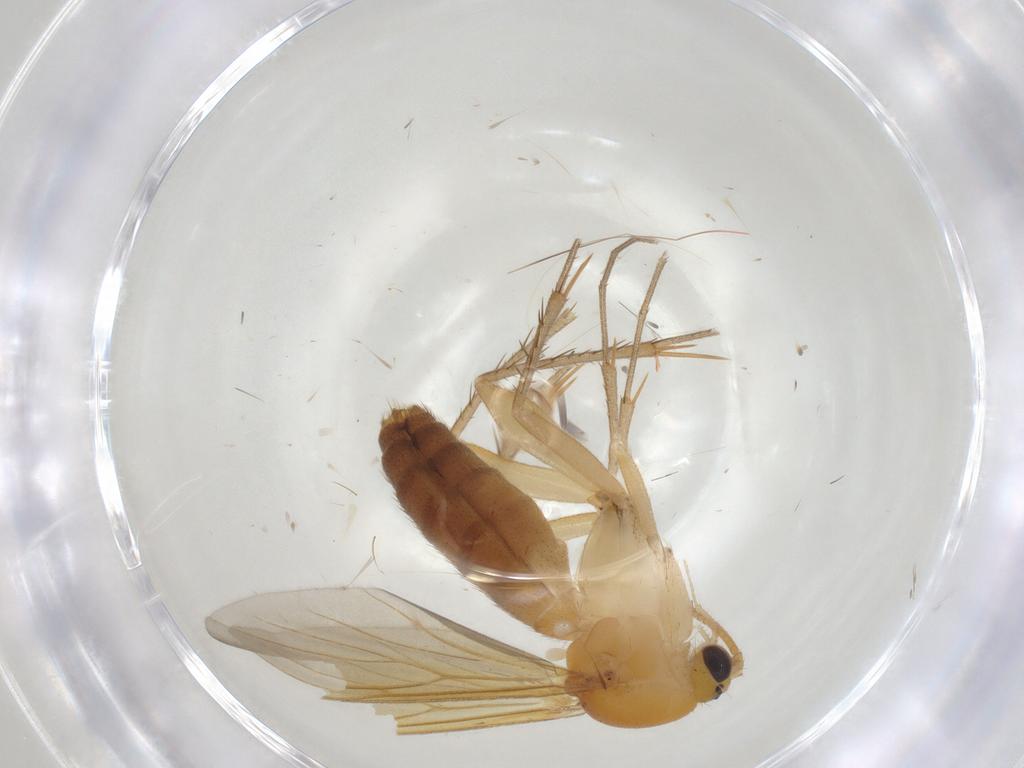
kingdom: Animalia
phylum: Arthropoda
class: Insecta
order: Diptera
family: Mycetophilidae
